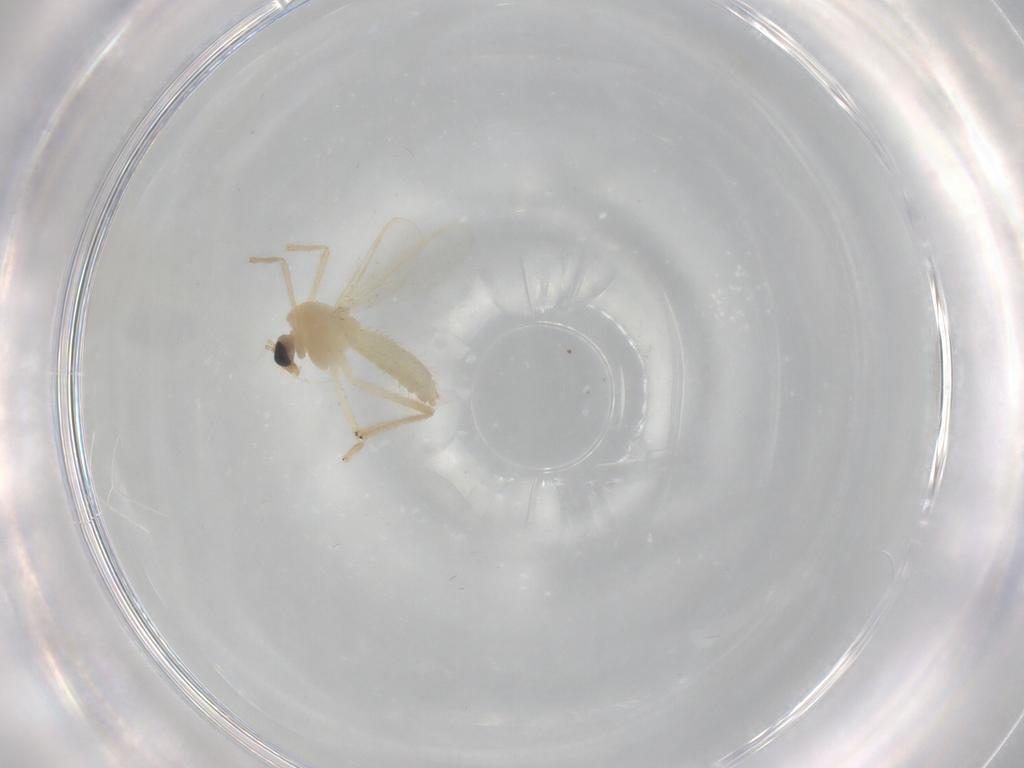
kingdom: Animalia
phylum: Arthropoda
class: Insecta
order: Diptera
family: Chironomidae
